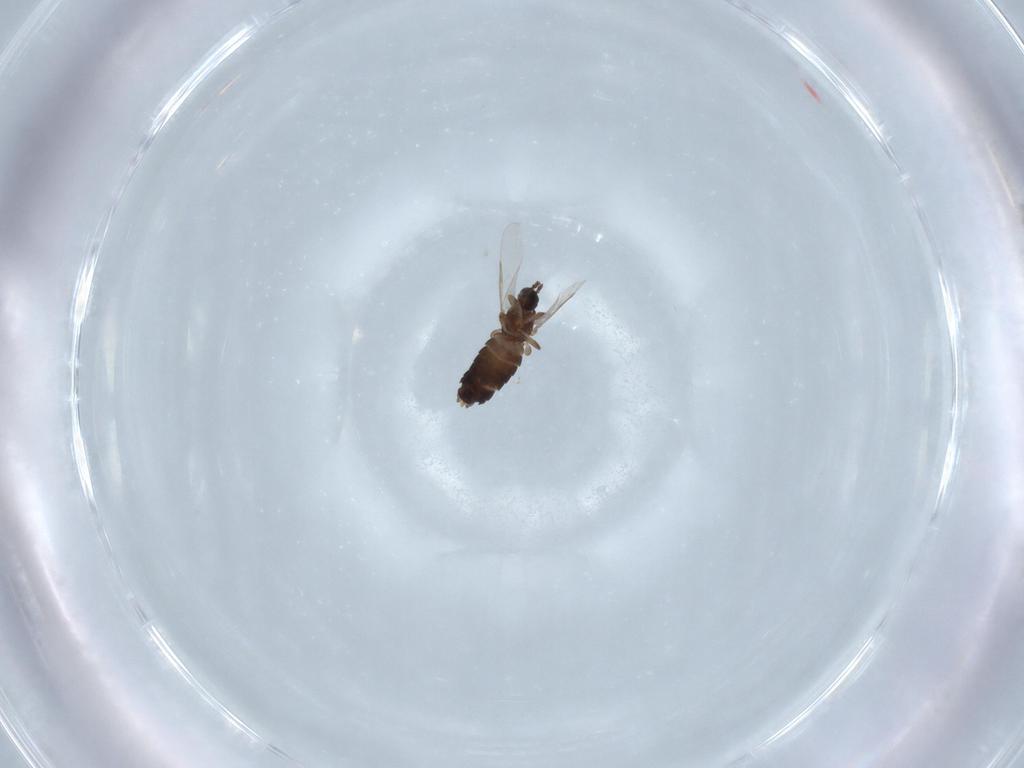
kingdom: Animalia
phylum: Arthropoda
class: Insecta
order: Diptera
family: Scatopsidae
